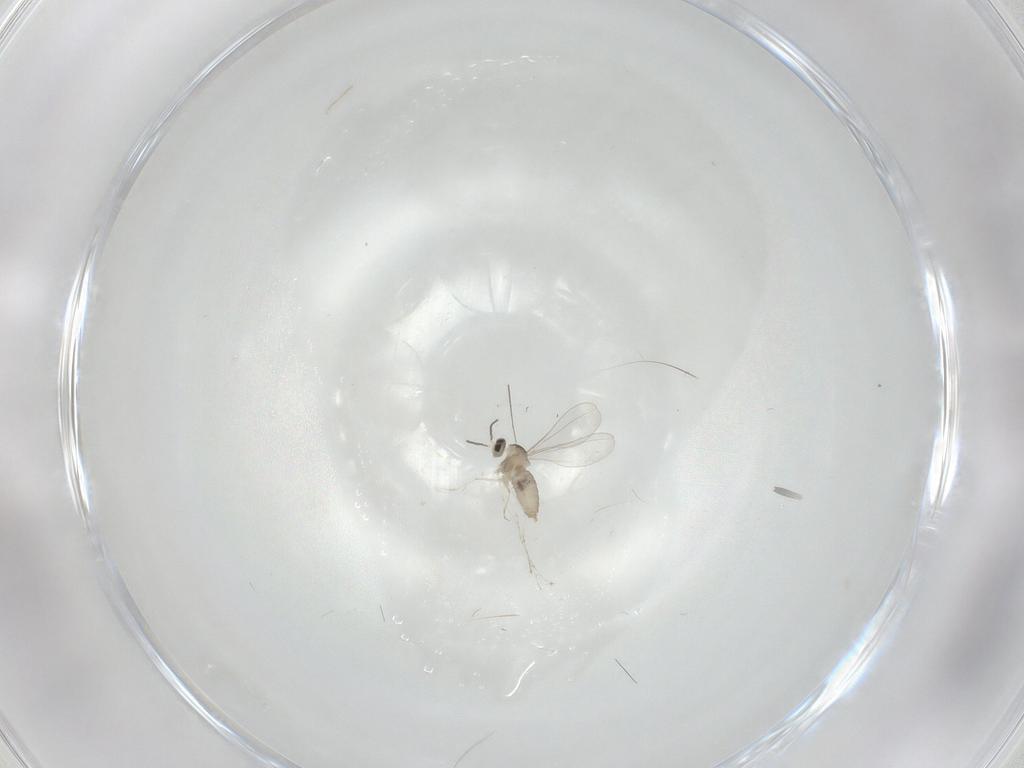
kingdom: Animalia
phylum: Arthropoda
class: Insecta
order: Diptera
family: Cecidomyiidae
